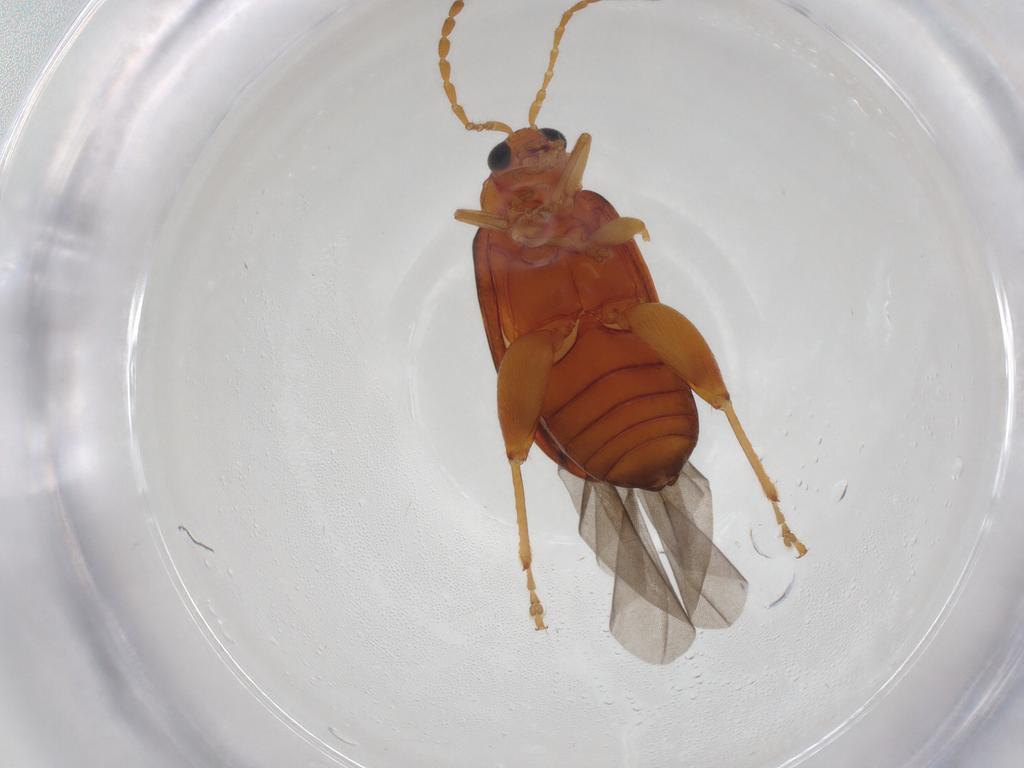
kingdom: Animalia
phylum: Arthropoda
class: Insecta
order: Coleoptera
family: Chrysomelidae
